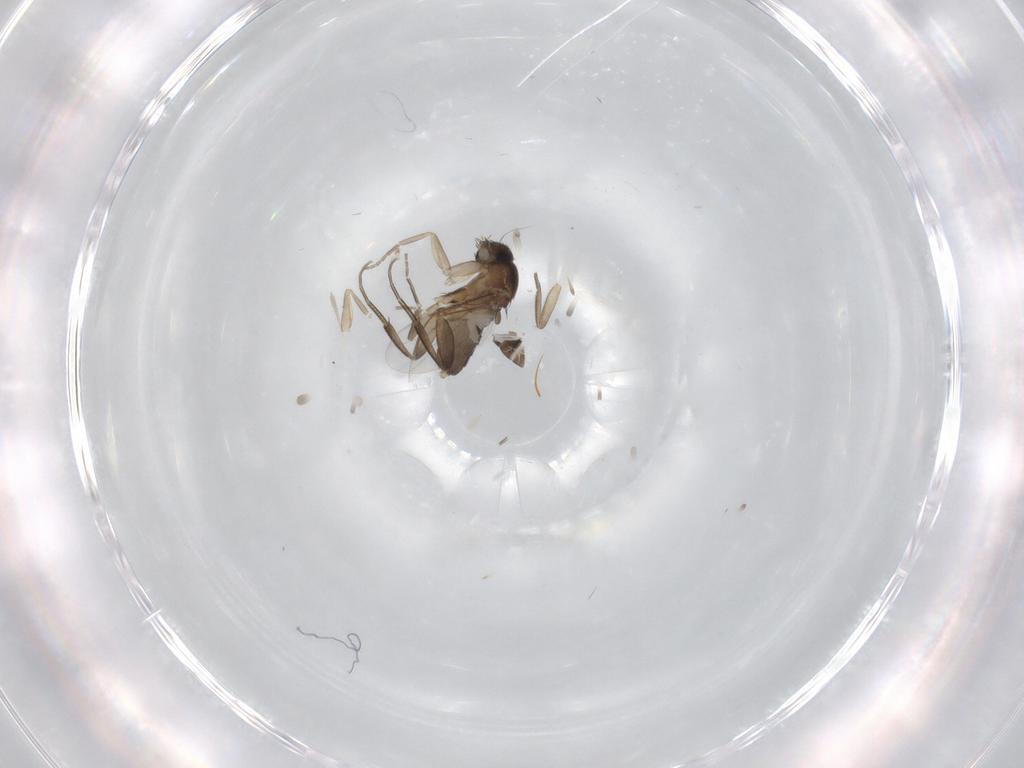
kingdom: Animalia
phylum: Arthropoda
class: Insecta
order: Diptera
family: Phoridae
